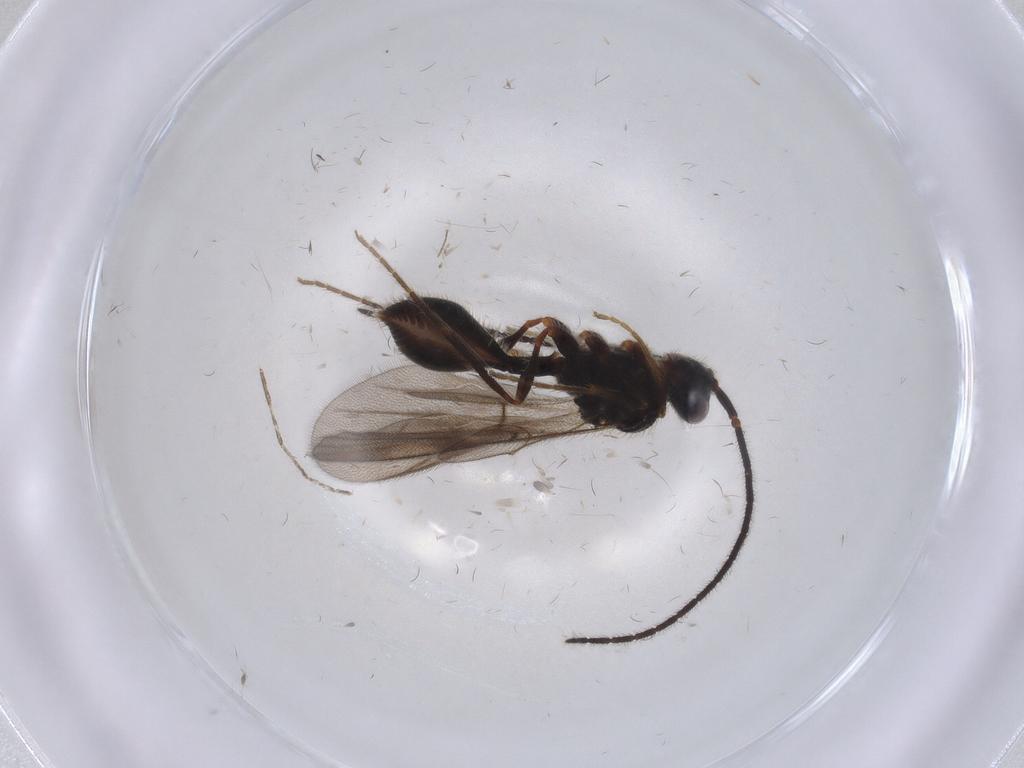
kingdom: Animalia
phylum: Arthropoda
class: Insecta
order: Hymenoptera
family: Diapriidae
